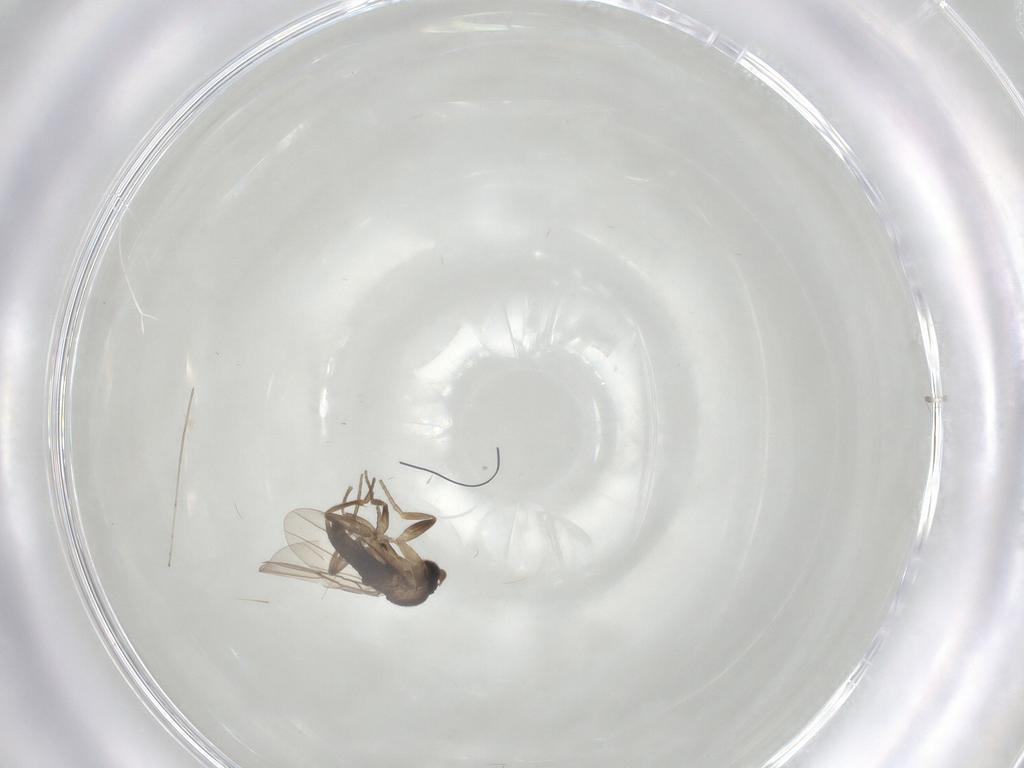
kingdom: Animalia
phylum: Arthropoda
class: Insecta
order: Diptera
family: Phoridae
